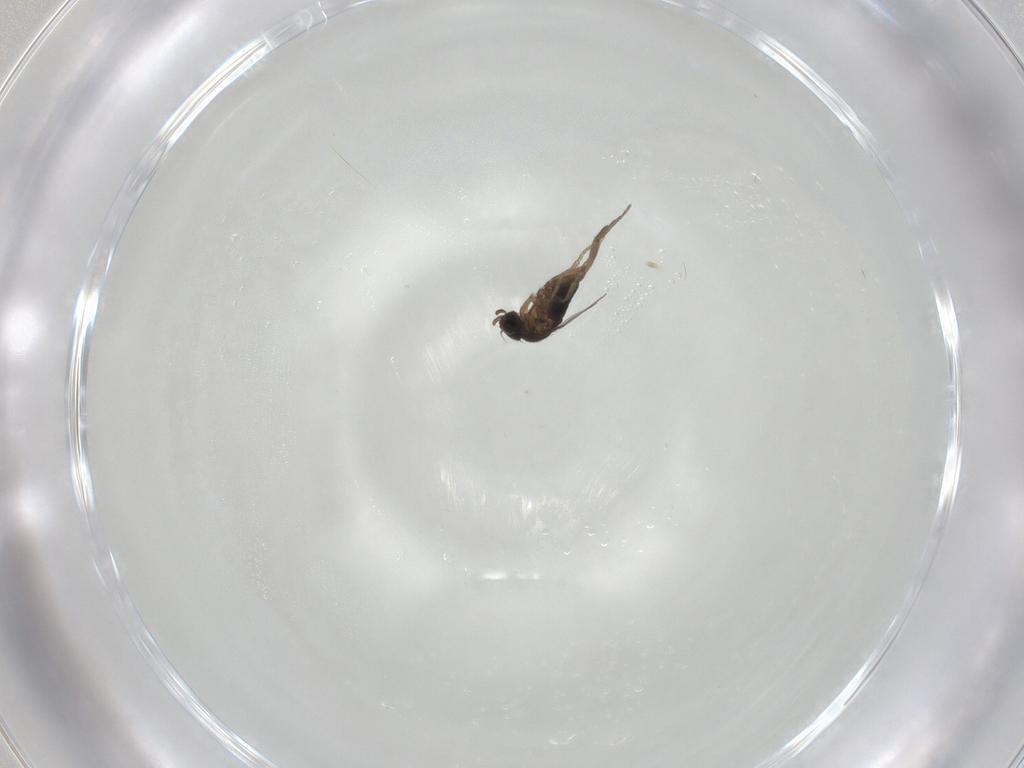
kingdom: Animalia
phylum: Arthropoda
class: Insecta
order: Diptera
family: Phoridae
